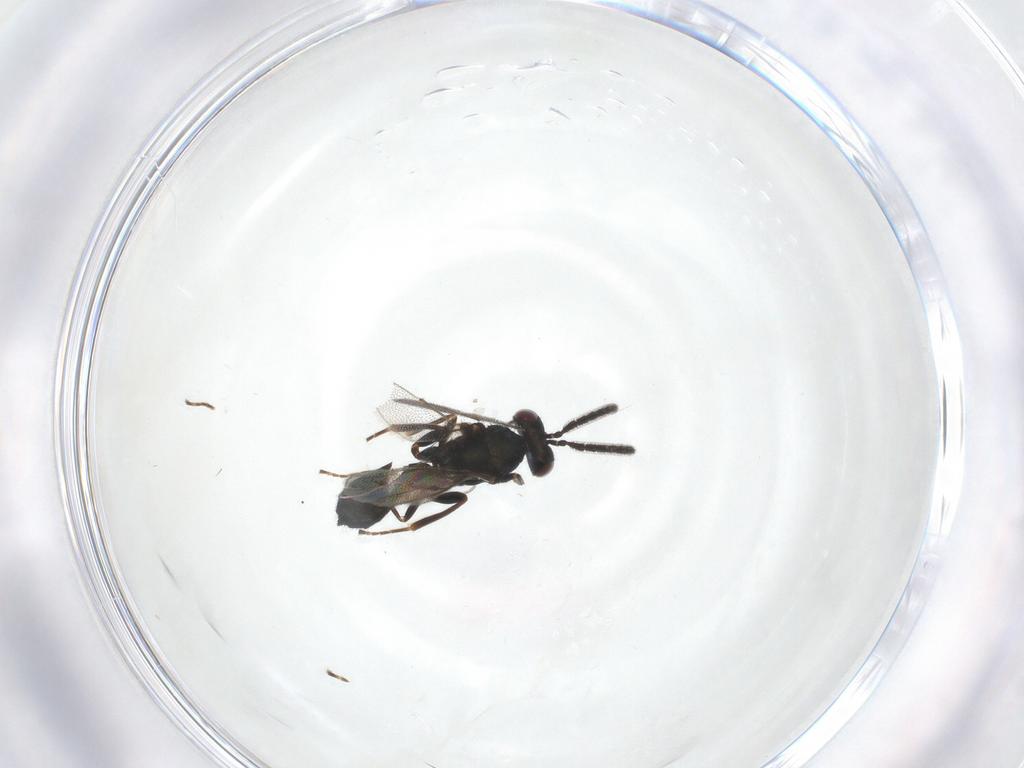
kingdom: Animalia
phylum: Arthropoda
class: Insecta
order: Hymenoptera
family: Pteromalidae
